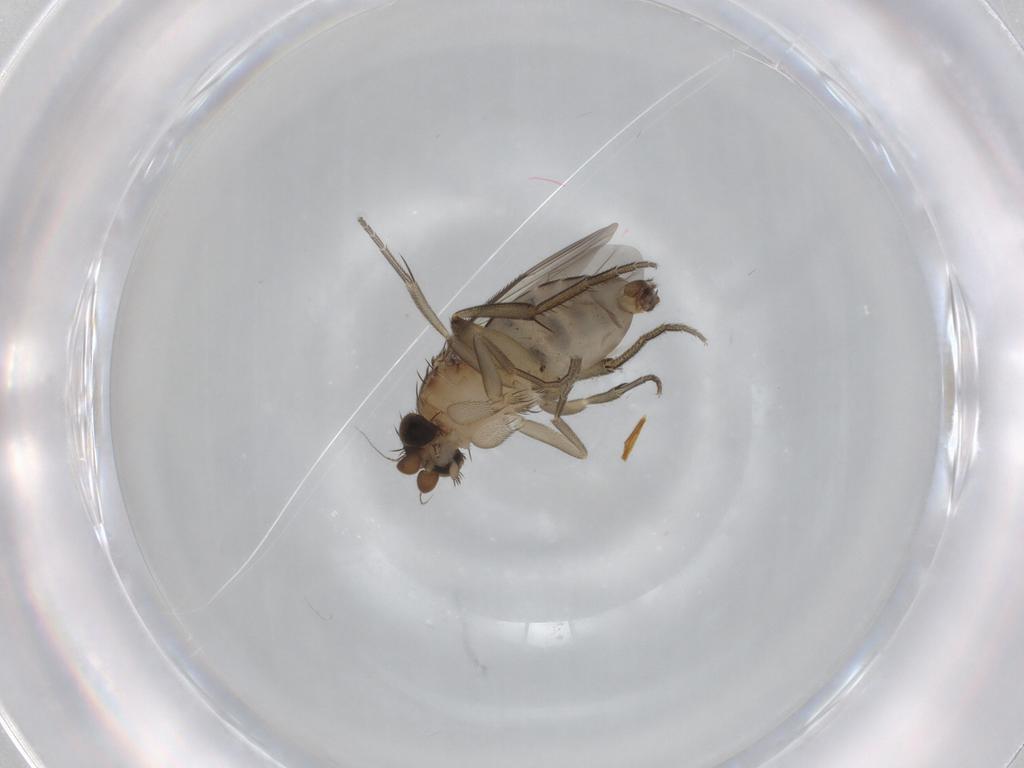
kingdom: Animalia
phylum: Arthropoda
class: Insecta
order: Diptera
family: Phoridae
